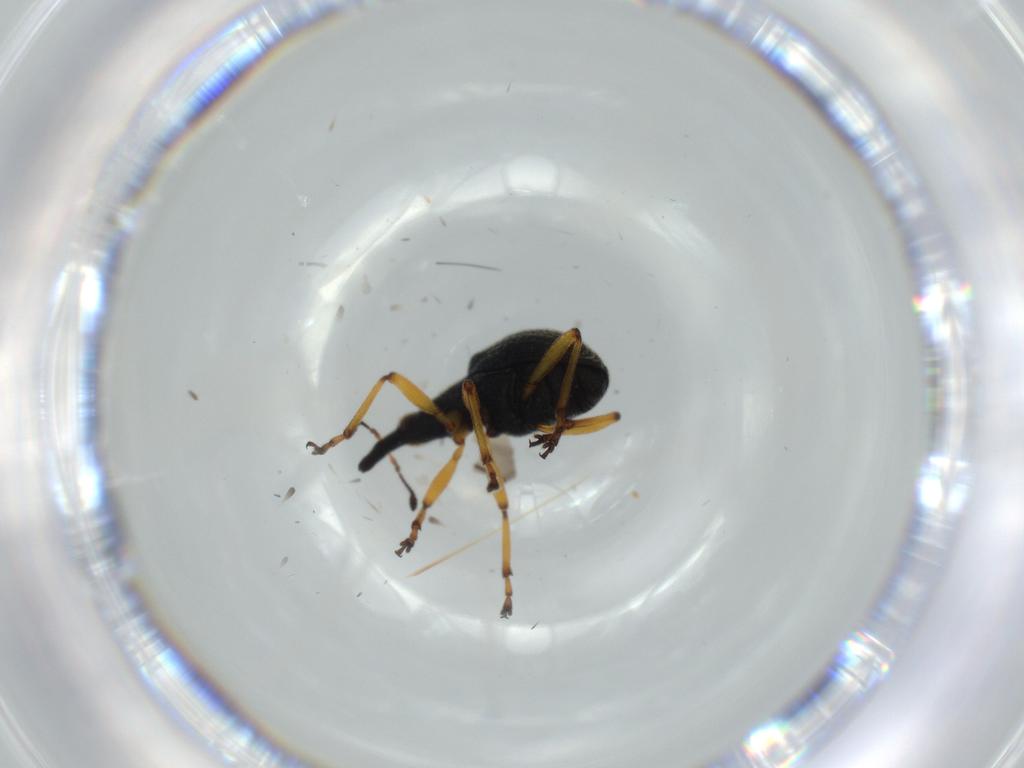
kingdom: Animalia
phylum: Arthropoda
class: Insecta
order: Coleoptera
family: Brentidae
